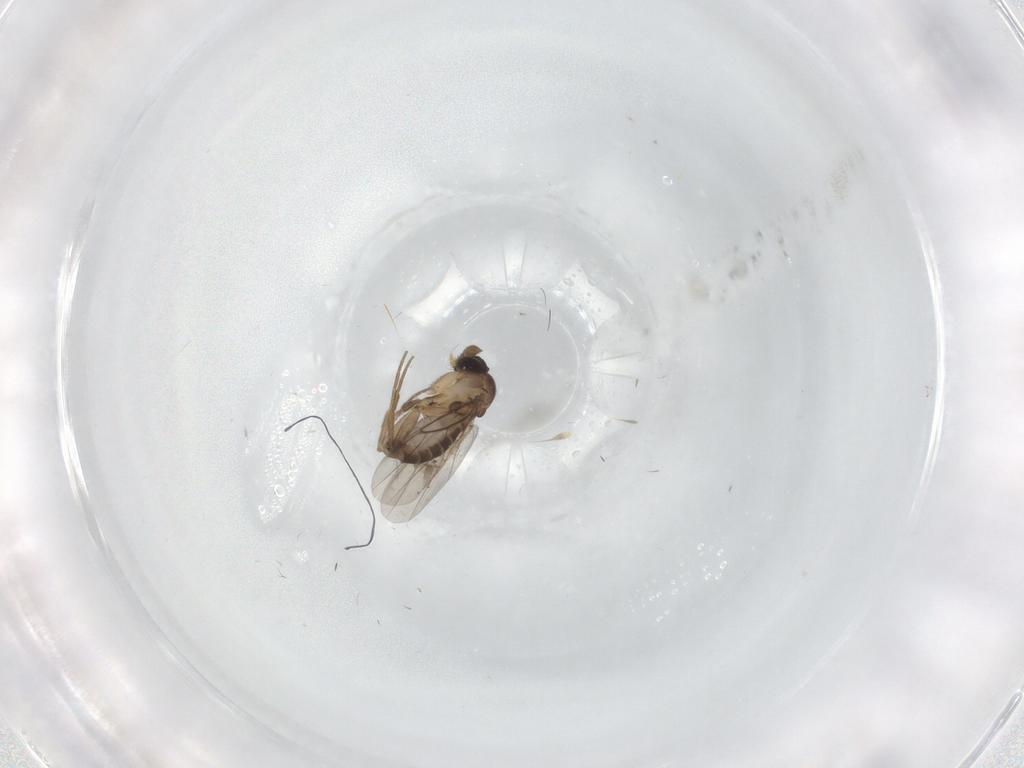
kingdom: Animalia
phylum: Arthropoda
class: Insecta
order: Diptera
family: Phoridae
